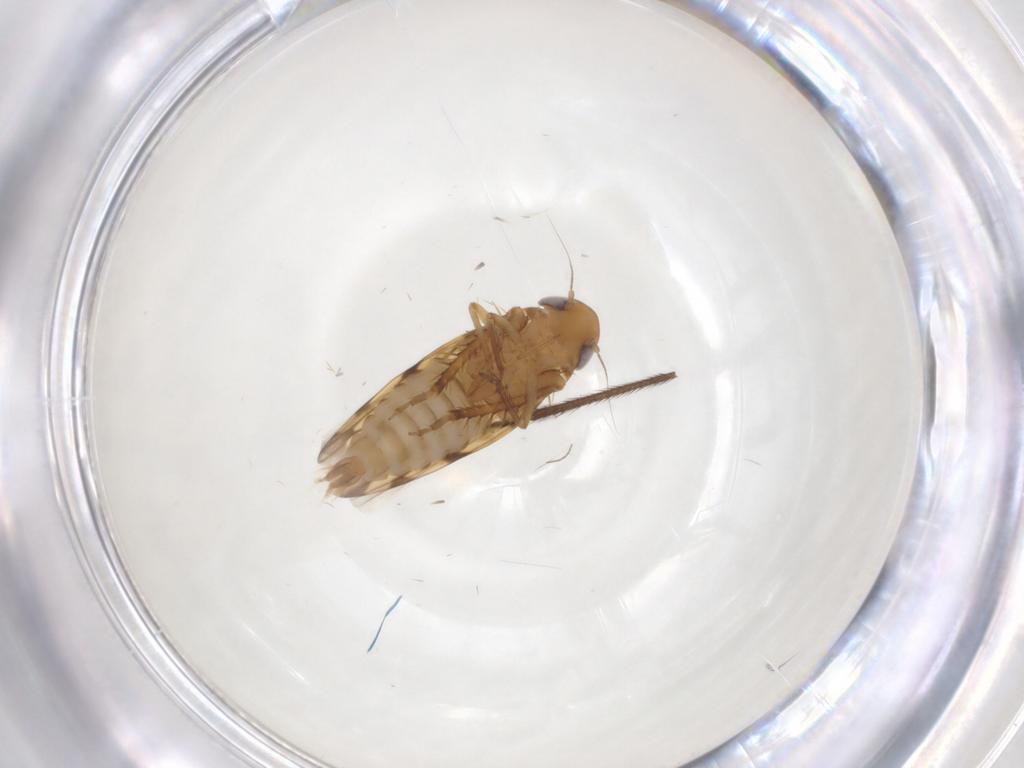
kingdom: Animalia
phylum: Arthropoda
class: Insecta
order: Hemiptera
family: Cicadellidae
